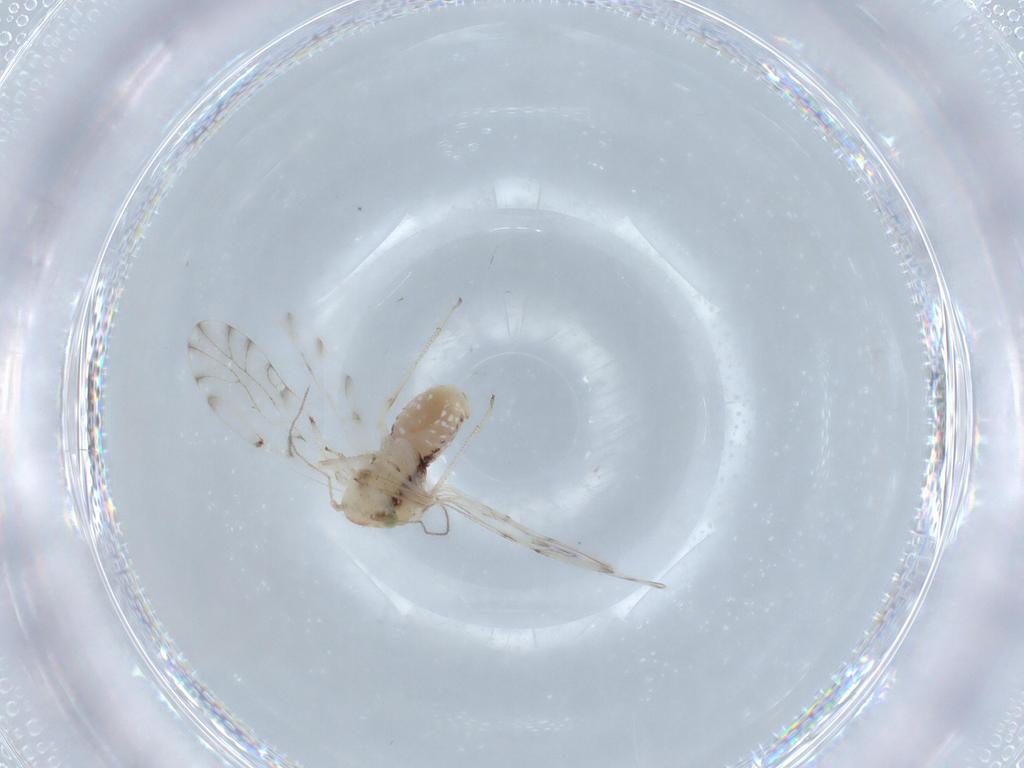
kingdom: Animalia
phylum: Arthropoda
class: Insecta
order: Psocodea
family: Ectopsocidae
